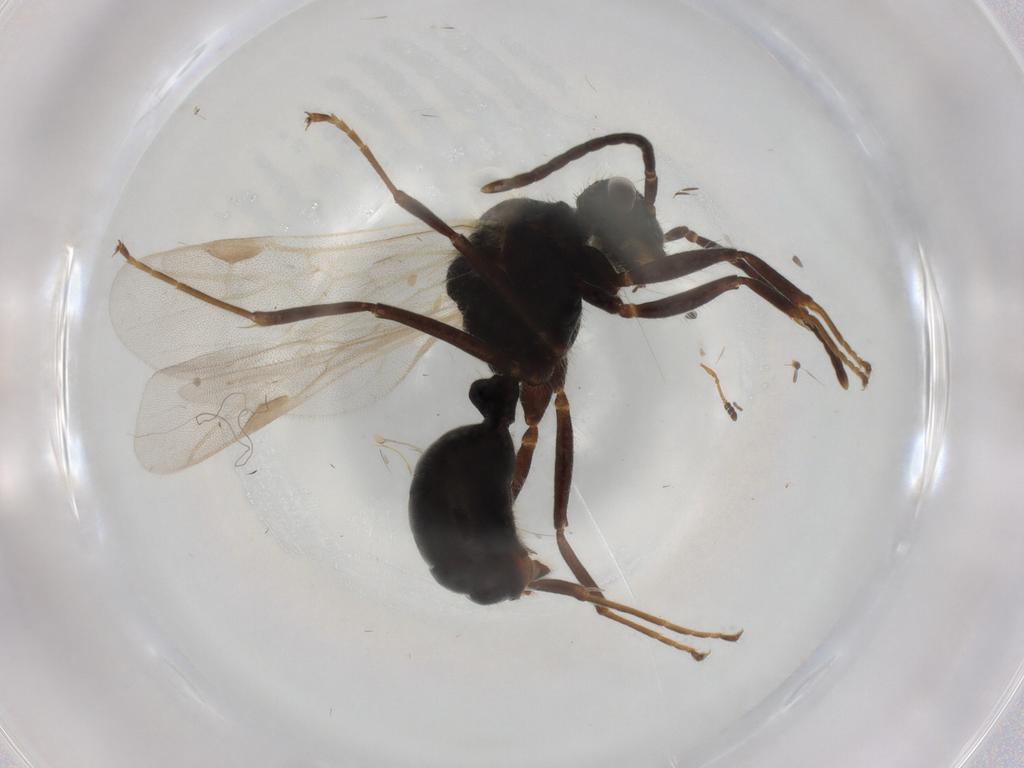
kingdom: Animalia
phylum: Arthropoda
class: Insecta
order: Hymenoptera
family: Formicidae
